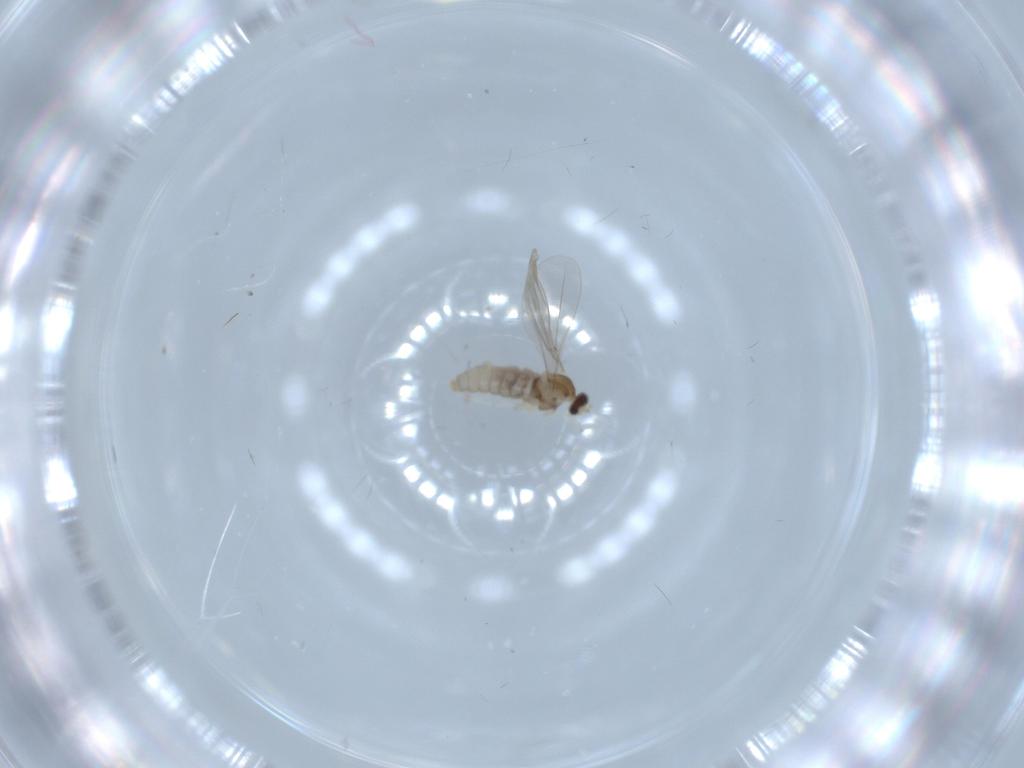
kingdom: Animalia
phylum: Arthropoda
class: Insecta
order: Diptera
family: Cecidomyiidae
